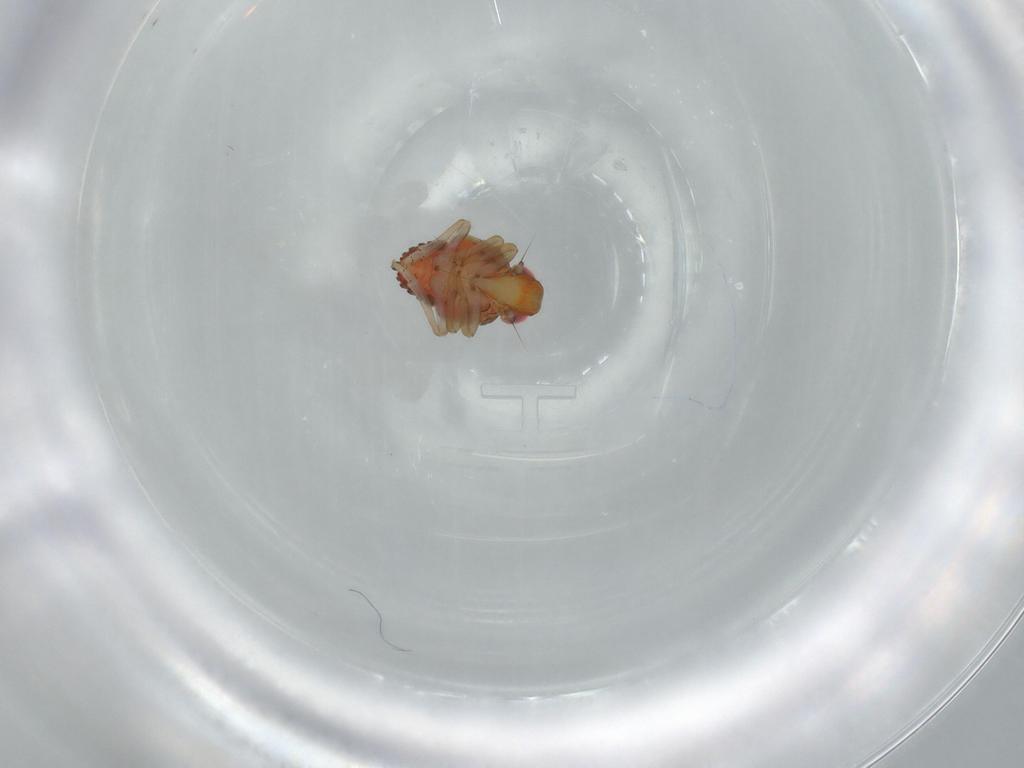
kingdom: Animalia
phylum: Arthropoda
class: Insecta
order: Hemiptera
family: Issidae
